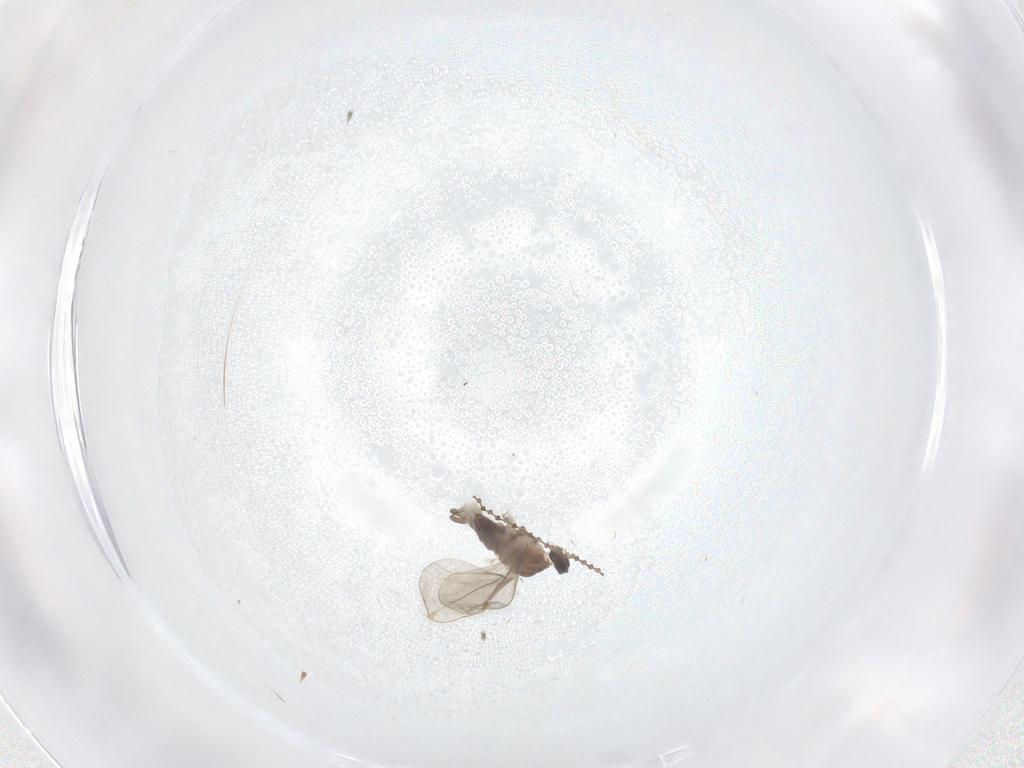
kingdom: Animalia
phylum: Arthropoda
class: Insecta
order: Diptera
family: Cecidomyiidae
